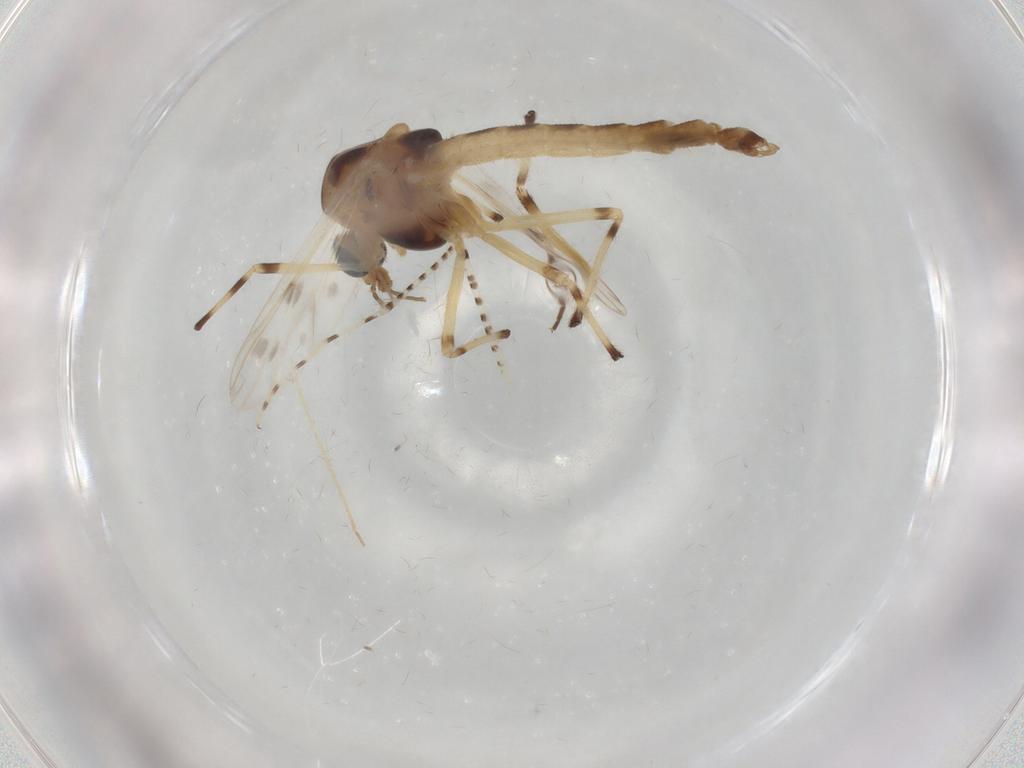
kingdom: Animalia
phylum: Arthropoda
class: Insecta
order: Diptera
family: Chironomidae
